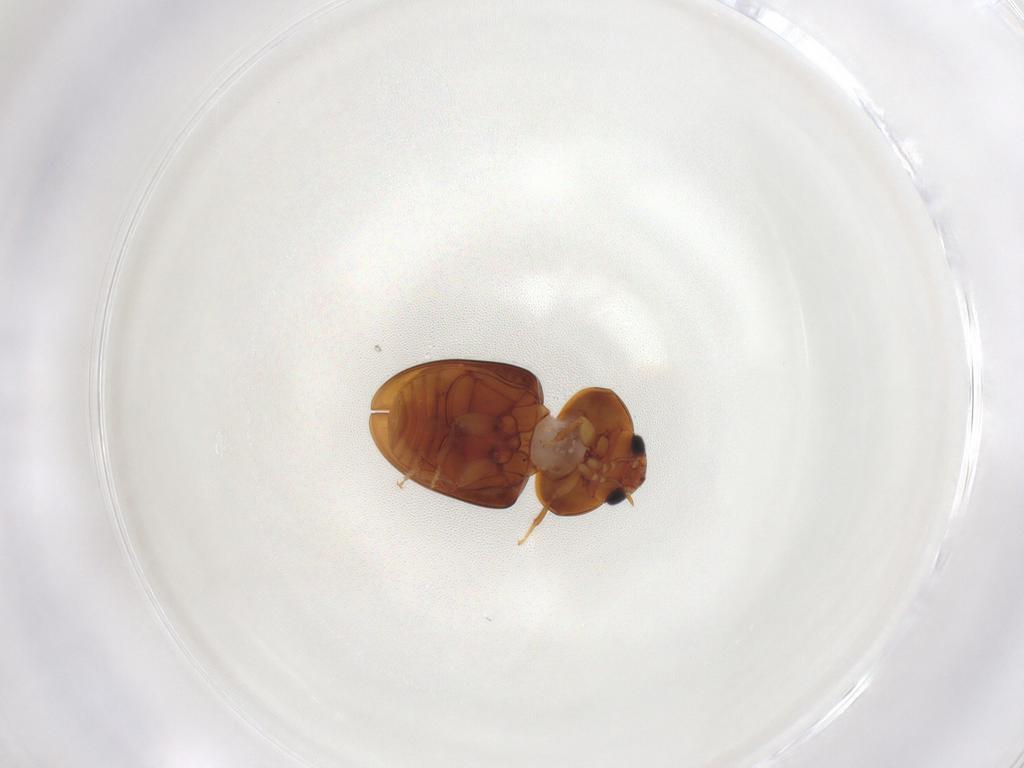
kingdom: Animalia
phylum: Arthropoda
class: Insecta
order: Coleoptera
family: Phalacridae
